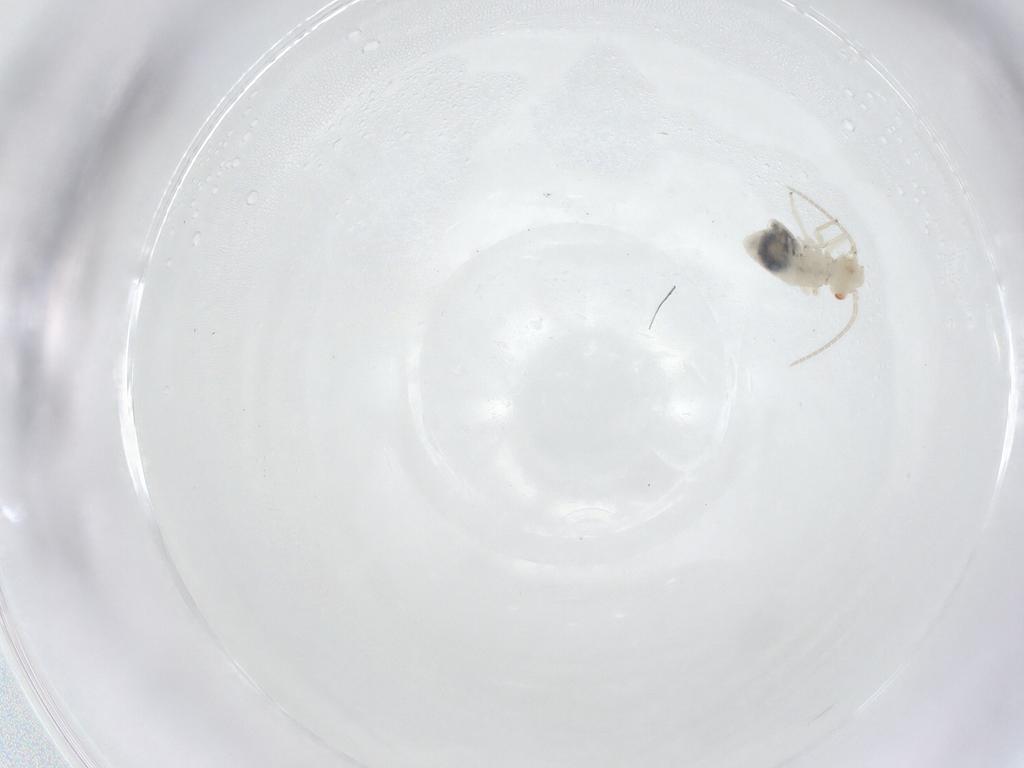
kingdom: Animalia
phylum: Arthropoda
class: Insecta
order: Psocodea
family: Caeciliusidae
